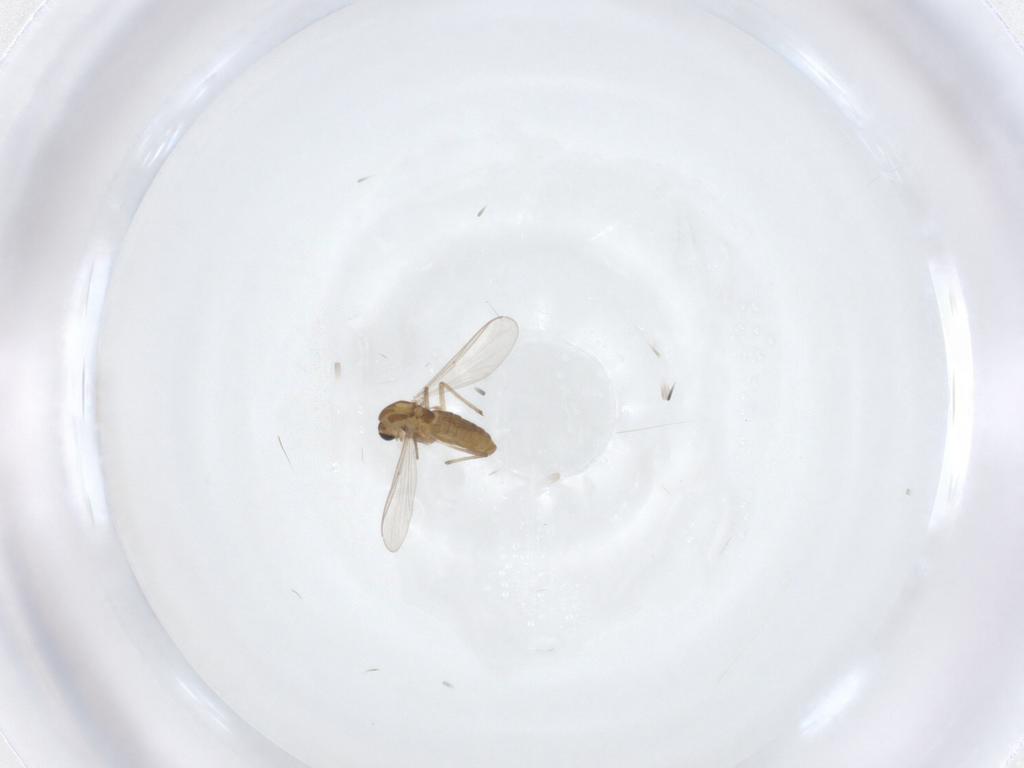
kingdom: Animalia
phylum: Arthropoda
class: Insecta
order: Diptera
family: Chironomidae
